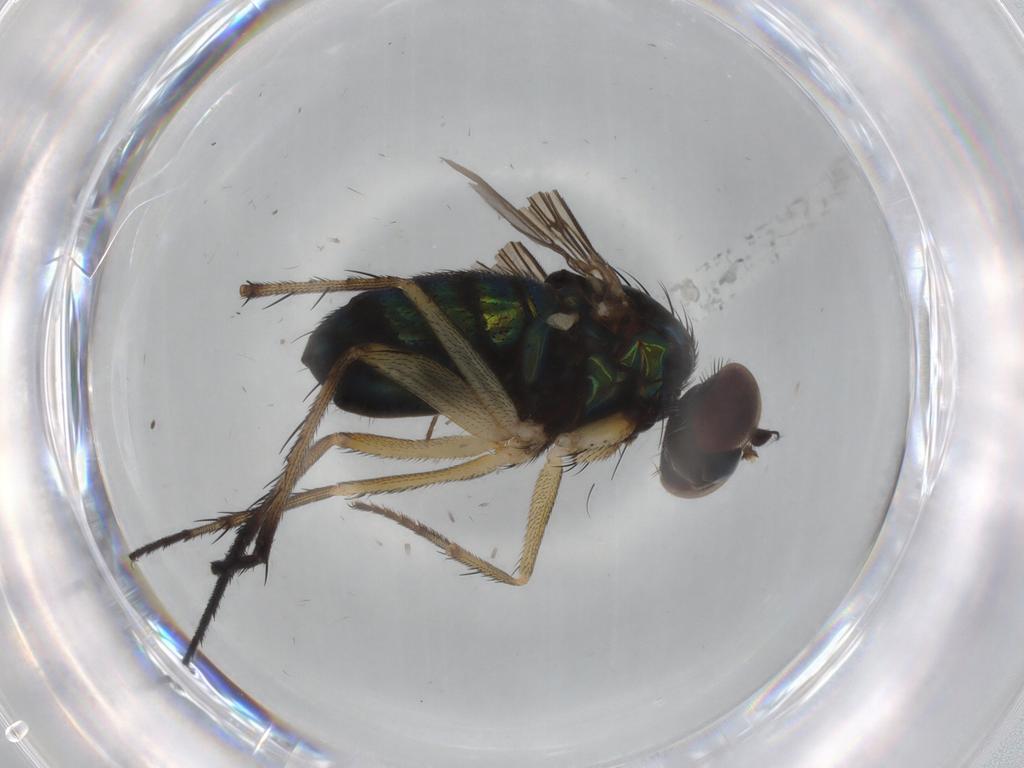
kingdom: Animalia
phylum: Arthropoda
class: Insecta
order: Diptera
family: Dolichopodidae
